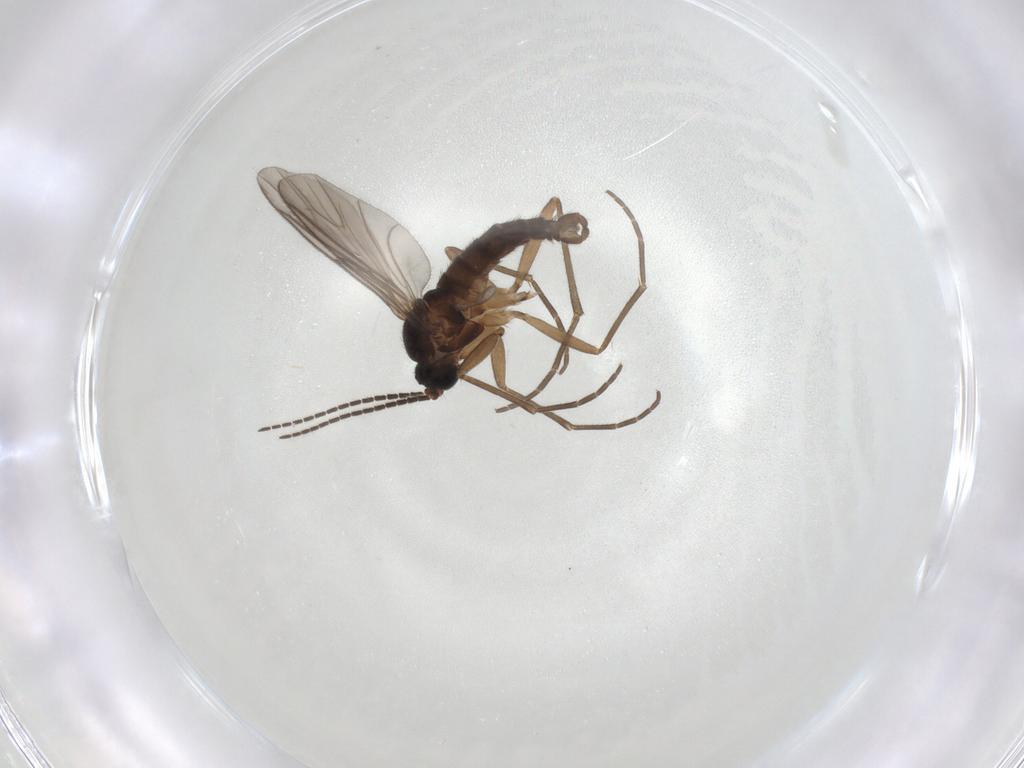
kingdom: Animalia
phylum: Arthropoda
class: Insecta
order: Diptera
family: Sciaridae
